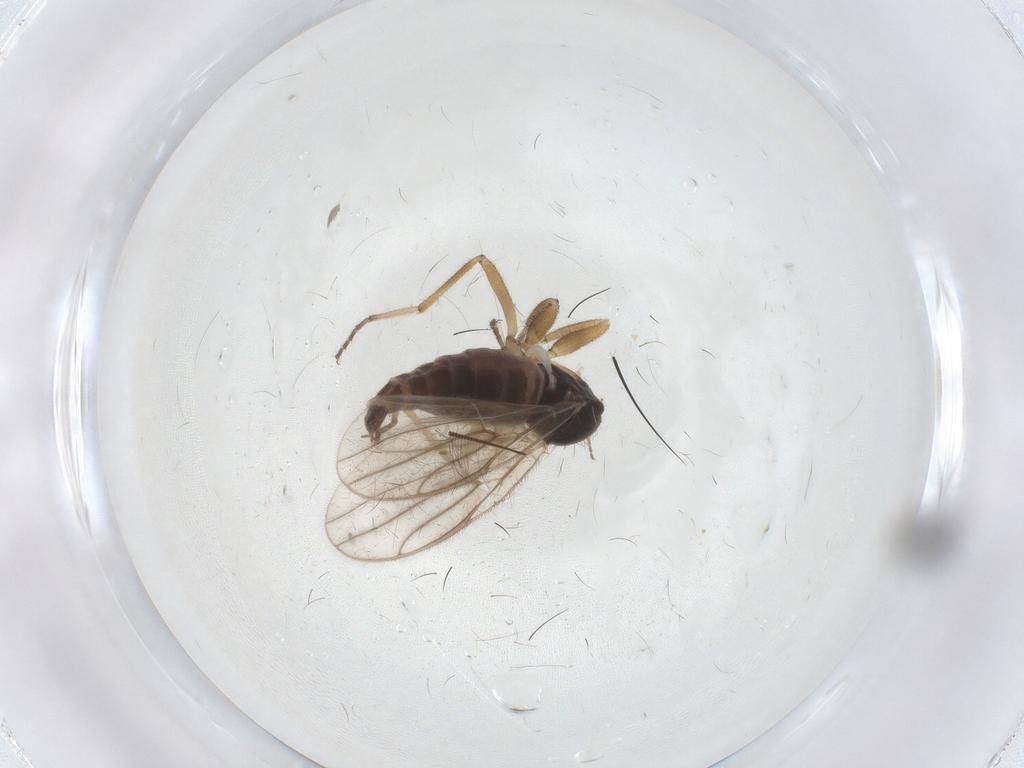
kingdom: Animalia
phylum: Arthropoda
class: Insecta
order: Diptera
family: Hybotidae
